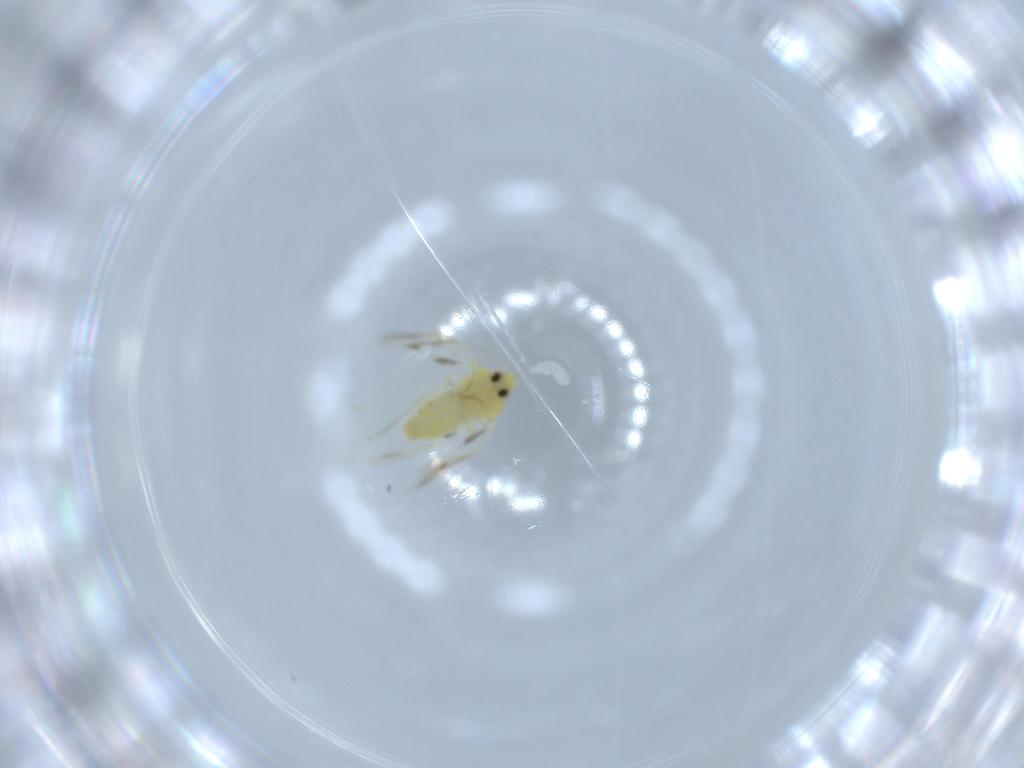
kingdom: Animalia
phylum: Arthropoda
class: Insecta
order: Hemiptera
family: Aleyrodidae
